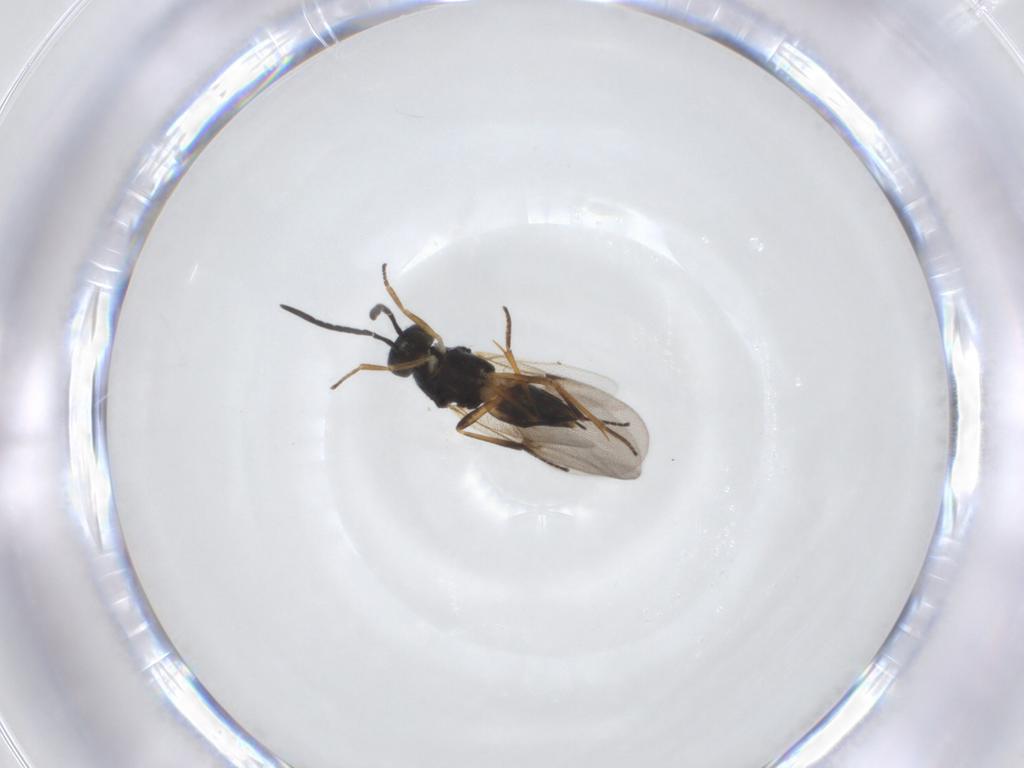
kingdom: Animalia
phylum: Arthropoda
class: Insecta
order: Hymenoptera
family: Encyrtidae
